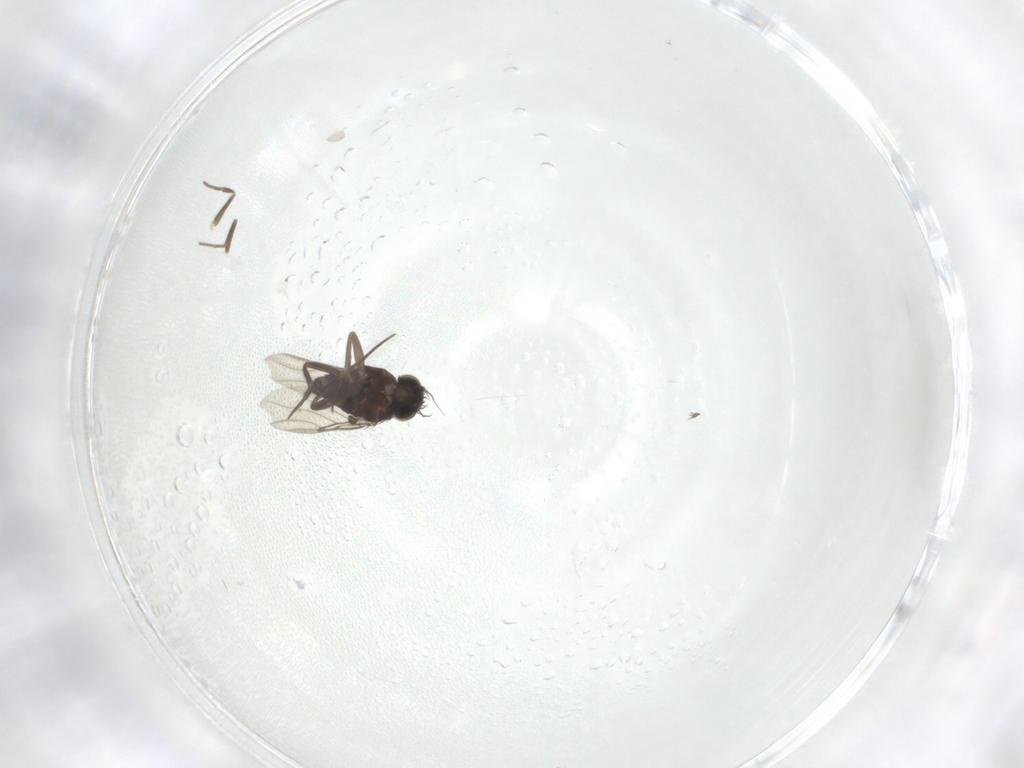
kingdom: Animalia
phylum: Arthropoda
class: Insecta
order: Diptera
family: Phoridae
